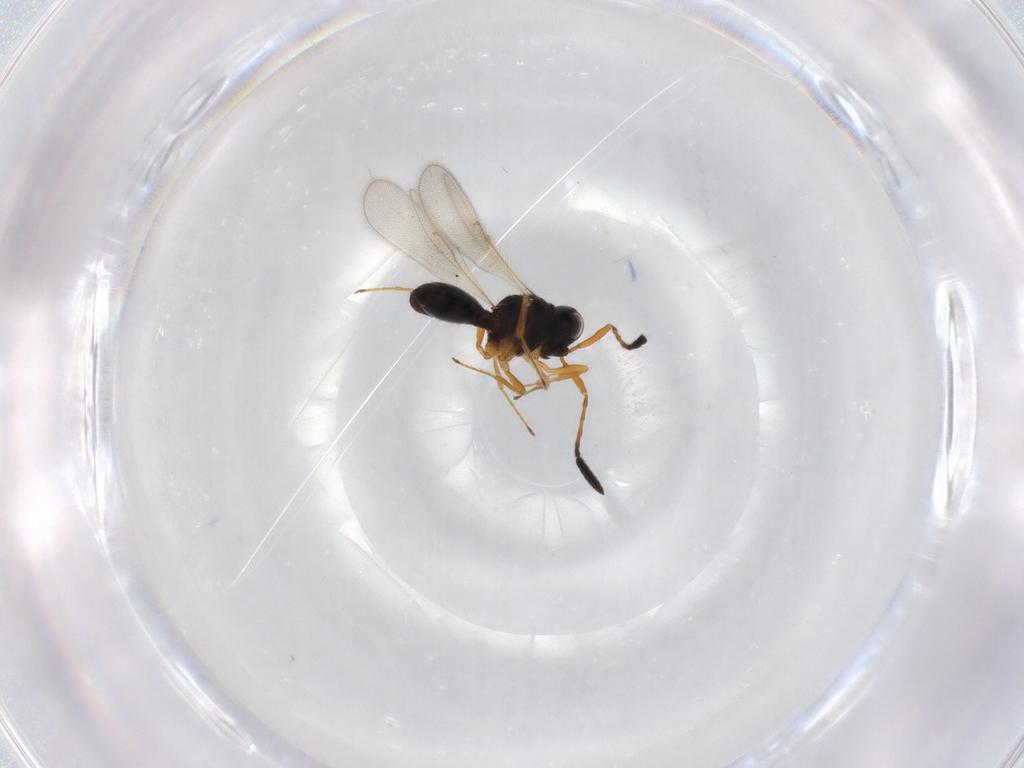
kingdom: Animalia
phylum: Arthropoda
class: Insecta
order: Hymenoptera
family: Scelionidae
